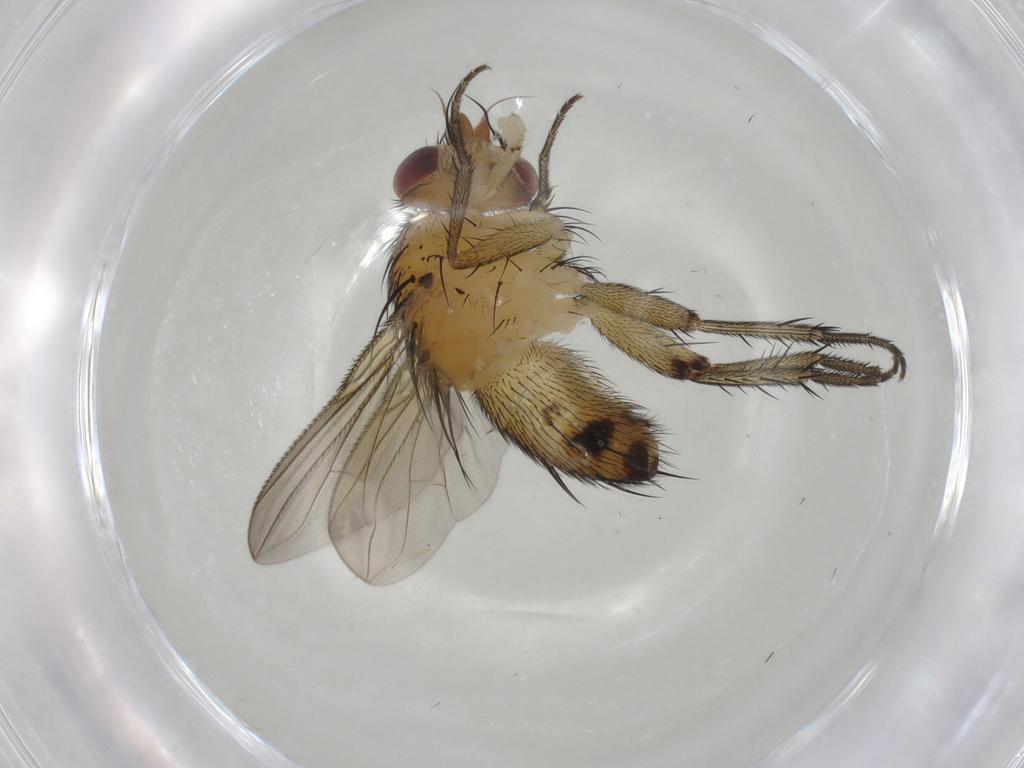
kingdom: Animalia
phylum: Arthropoda
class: Insecta
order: Diptera
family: Tachinidae
